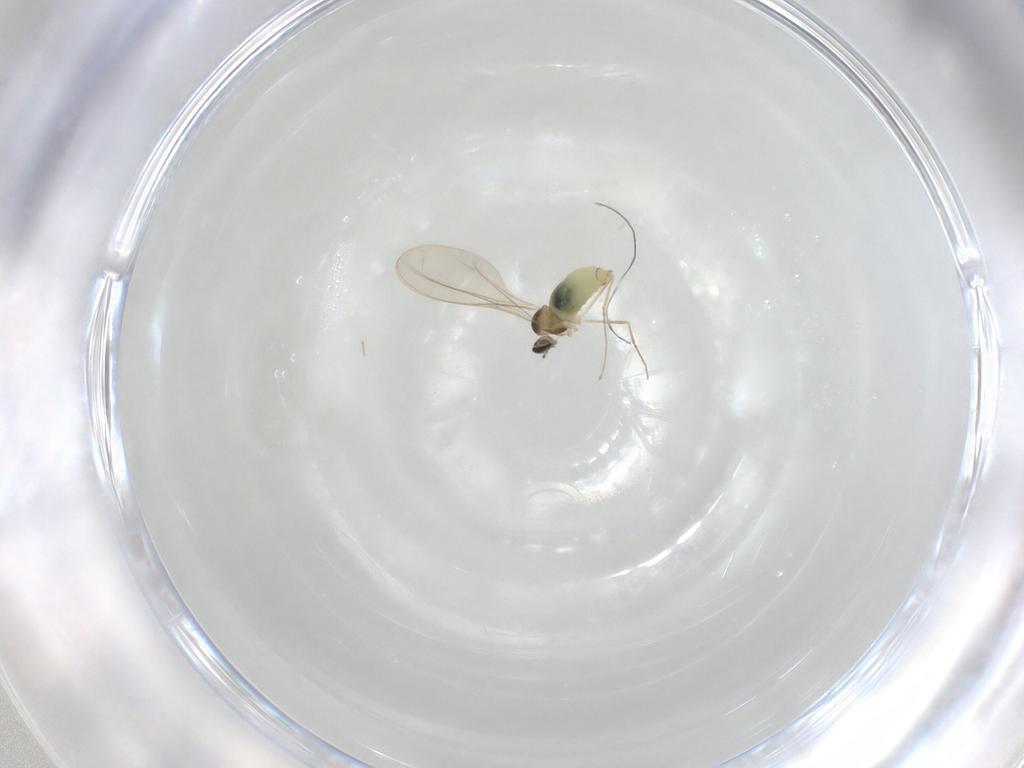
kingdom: Animalia
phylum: Arthropoda
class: Insecta
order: Diptera
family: Cecidomyiidae
